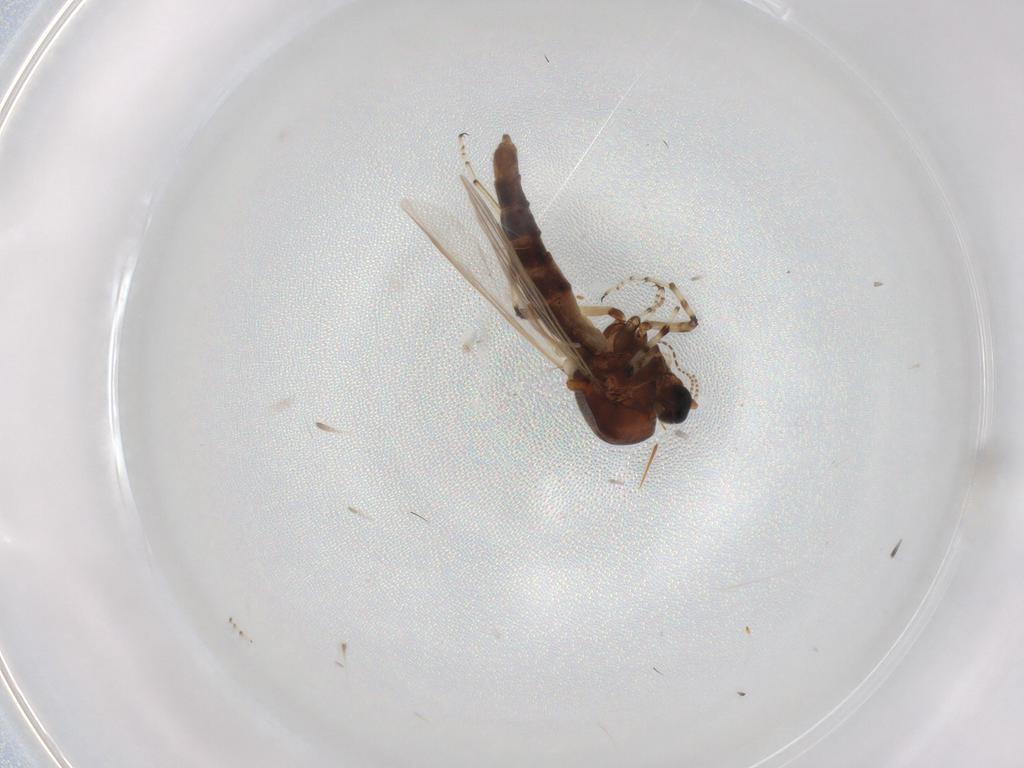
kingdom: Animalia
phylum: Arthropoda
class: Insecta
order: Diptera
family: Ceratopogonidae
